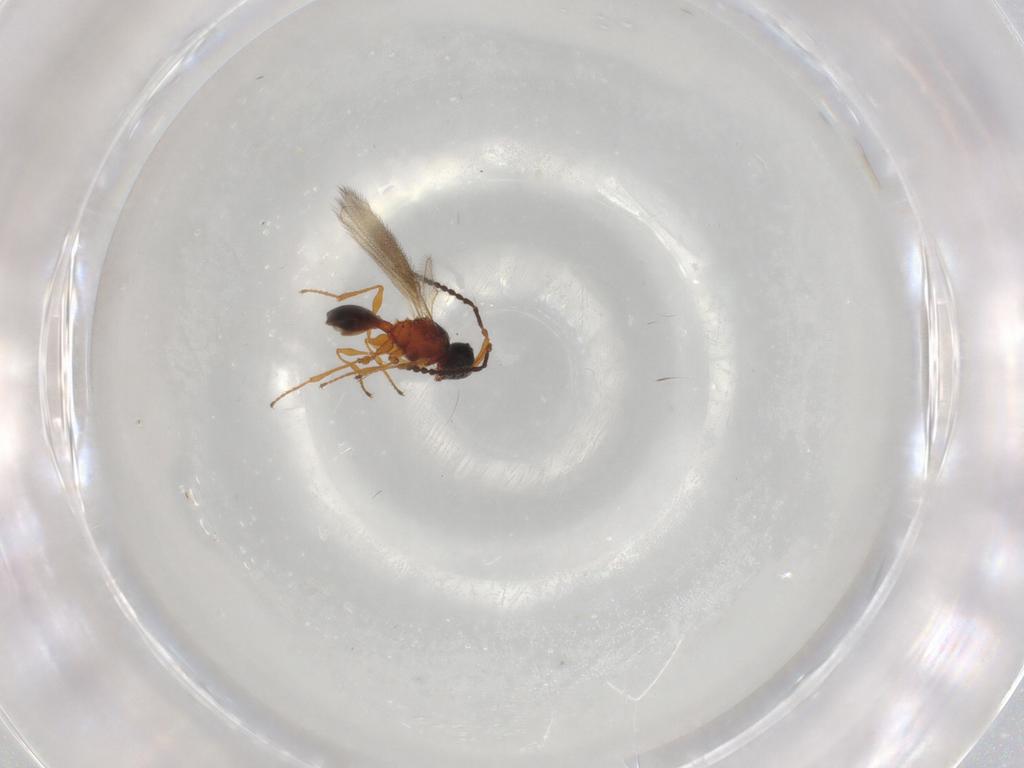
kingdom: Animalia
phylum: Arthropoda
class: Insecta
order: Hymenoptera
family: Diapriidae
